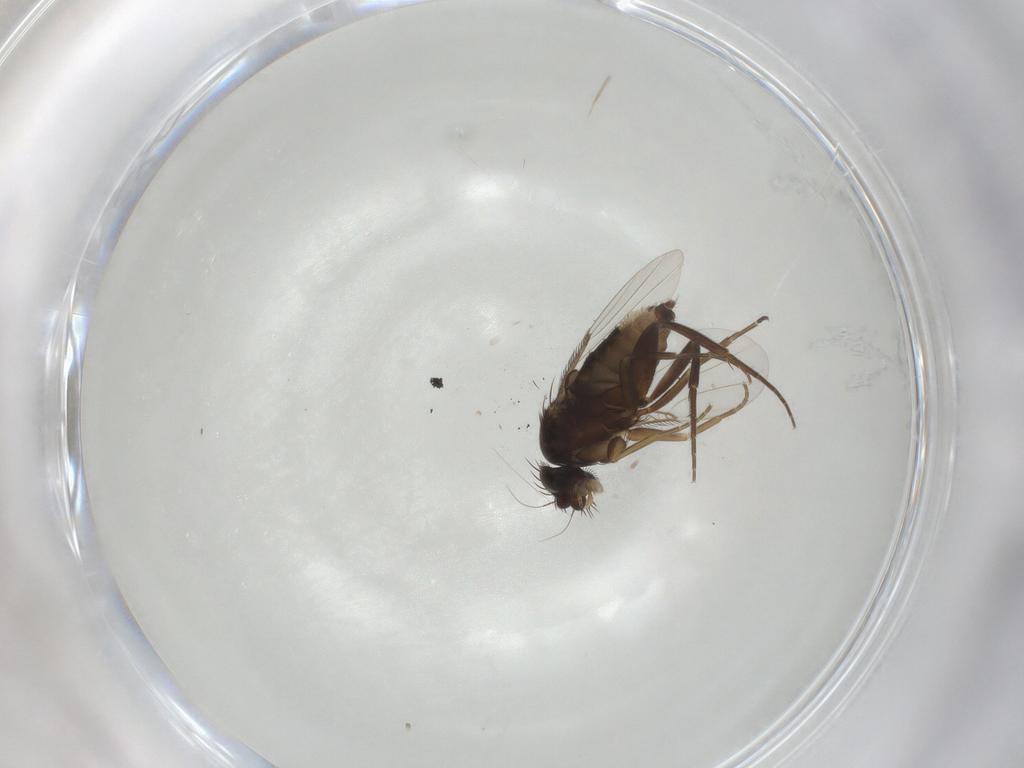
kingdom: Animalia
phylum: Arthropoda
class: Insecta
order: Diptera
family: Phoridae
